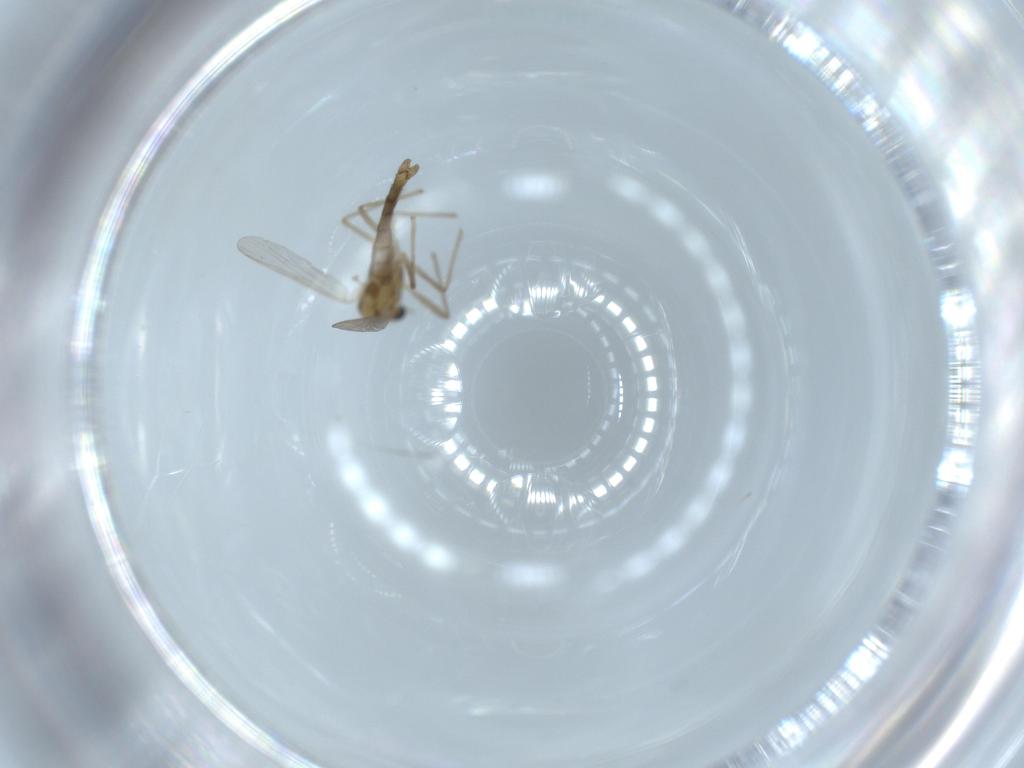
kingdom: Animalia
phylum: Arthropoda
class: Insecta
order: Diptera
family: Chironomidae
